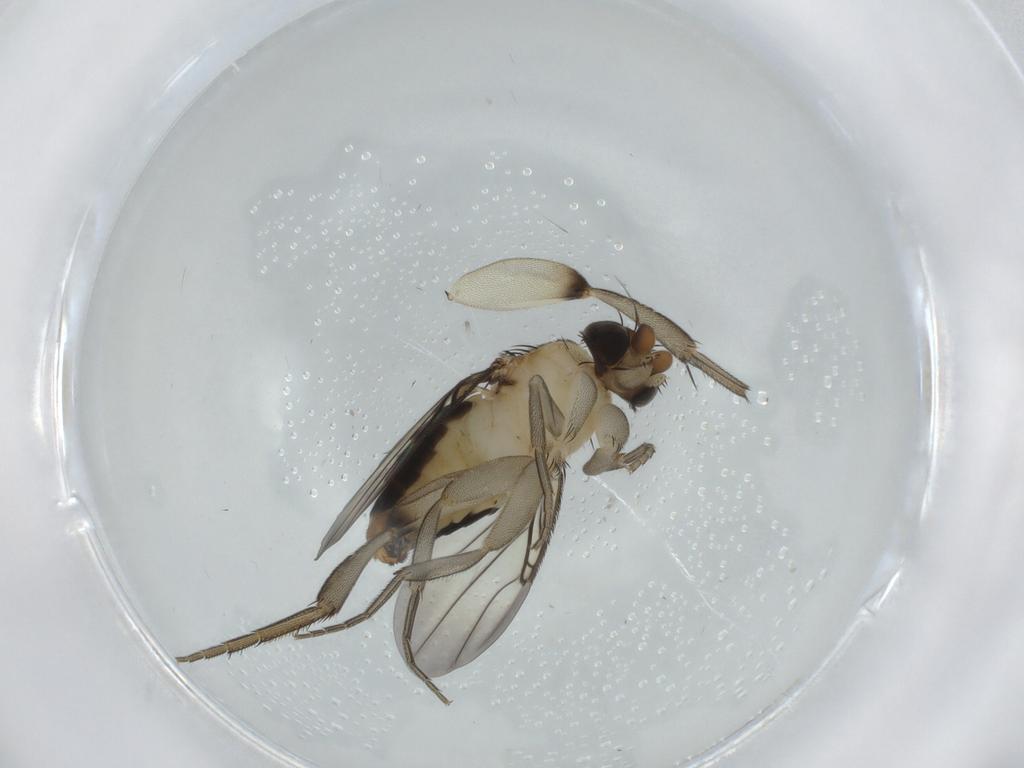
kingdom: Animalia
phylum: Arthropoda
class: Insecta
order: Diptera
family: Phoridae
